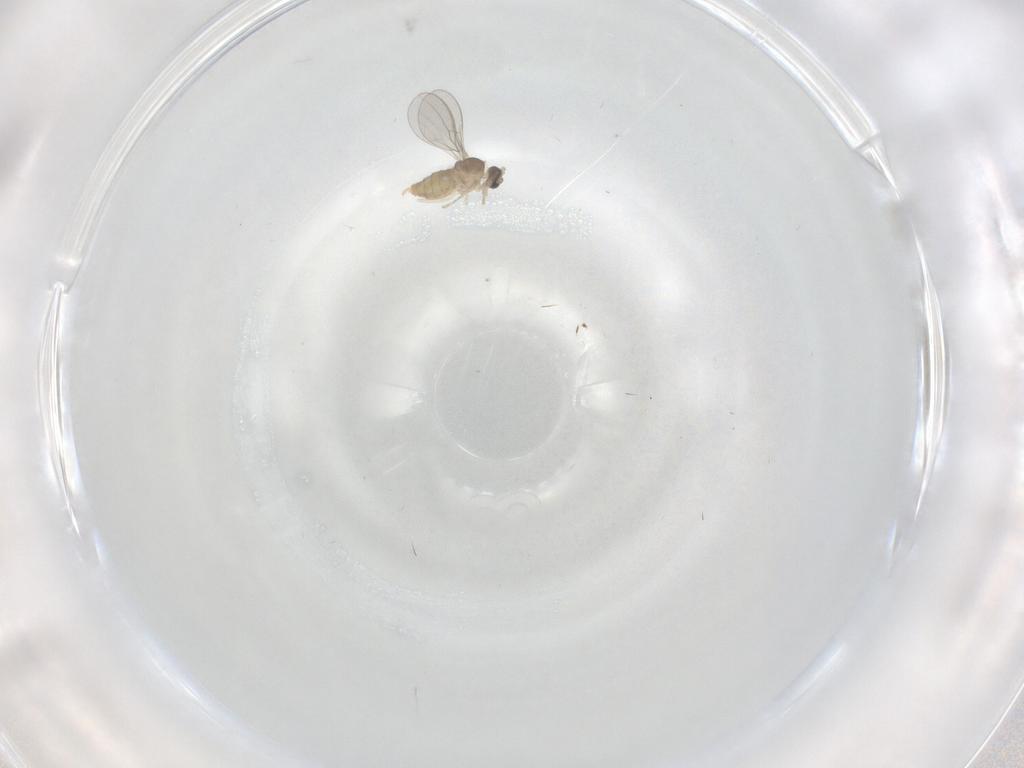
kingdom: Animalia
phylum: Arthropoda
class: Insecta
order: Diptera
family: Cecidomyiidae
